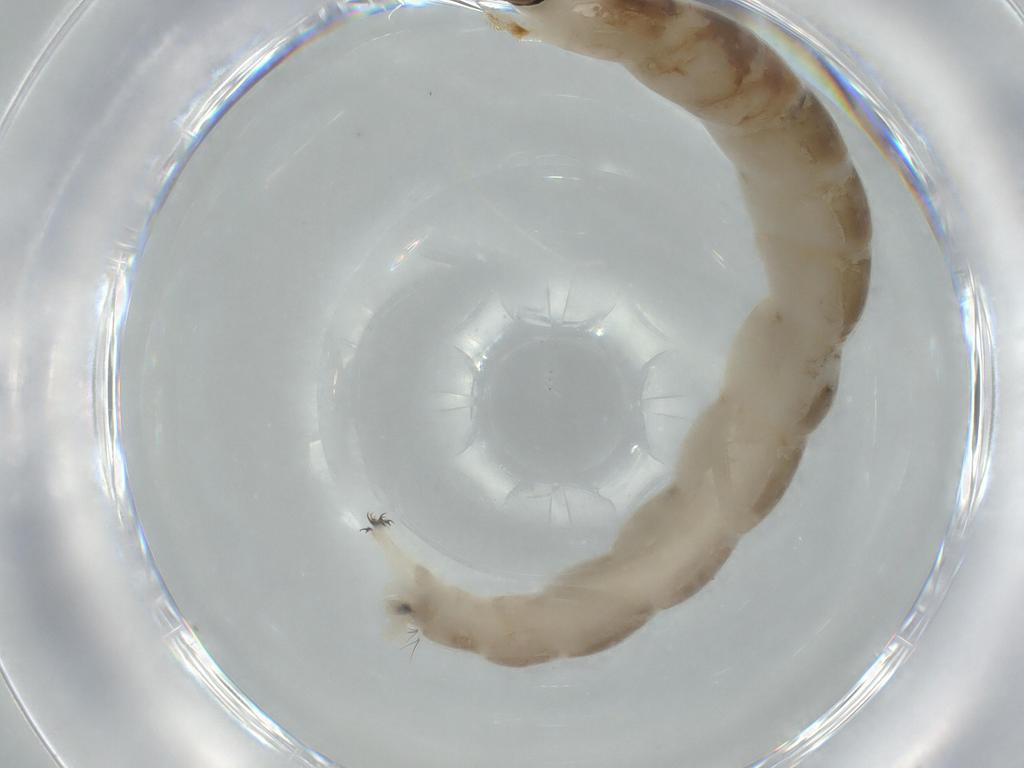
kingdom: Animalia
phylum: Arthropoda
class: Insecta
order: Diptera
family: Chironomidae
